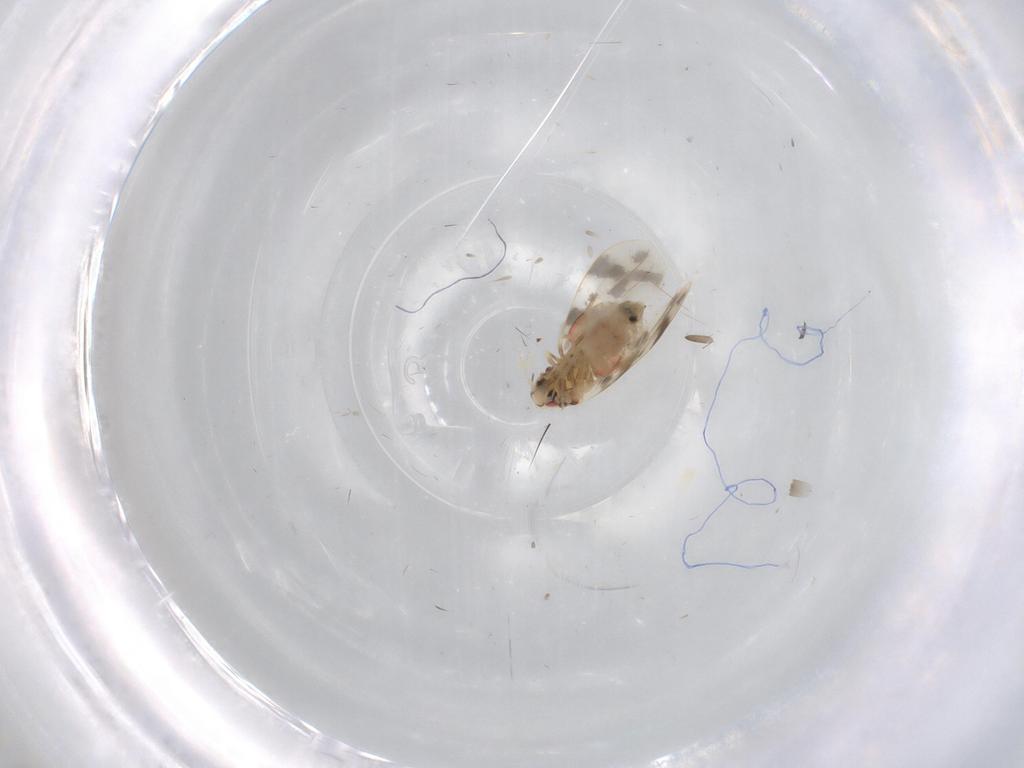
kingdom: Animalia
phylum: Arthropoda
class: Insecta
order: Hemiptera
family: Aleyrodidae
